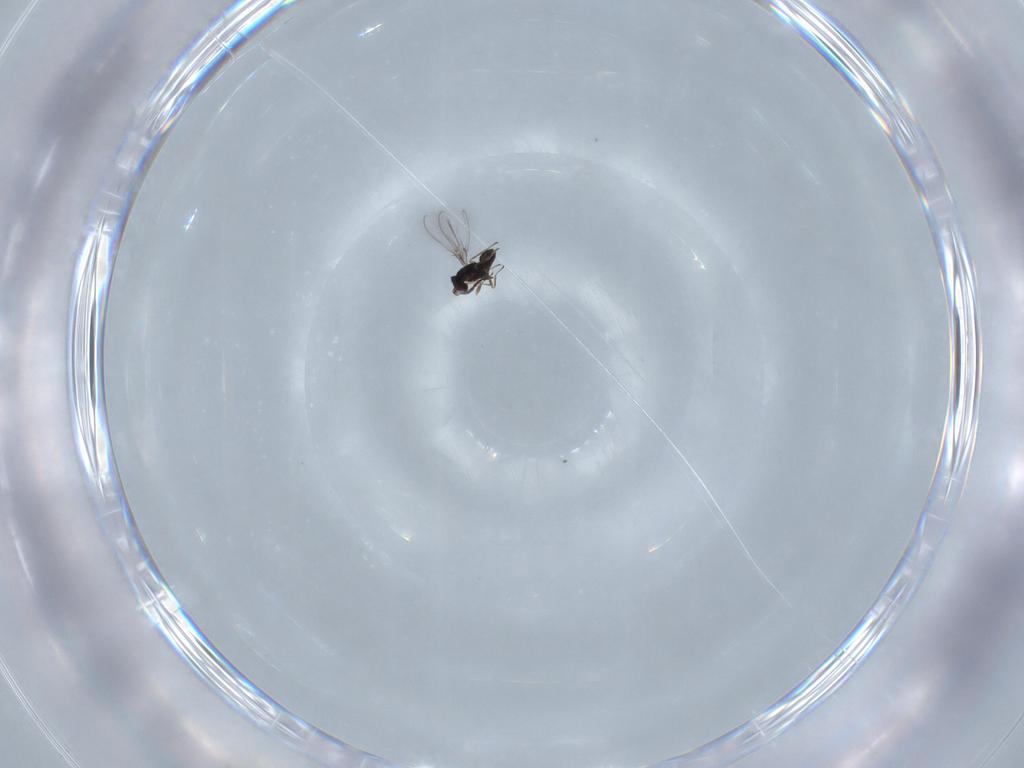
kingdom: Animalia
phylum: Arthropoda
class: Insecta
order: Hymenoptera
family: Mymaridae
